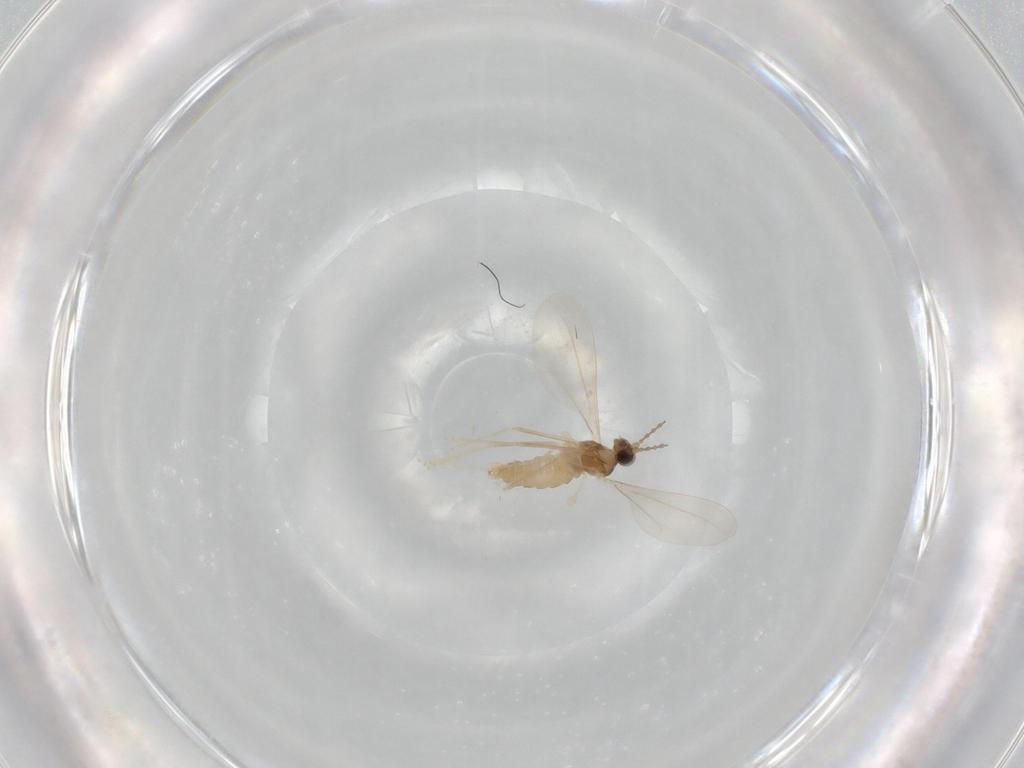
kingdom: Animalia
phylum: Arthropoda
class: Insecta
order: Diptera
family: Cecidomyiidae
